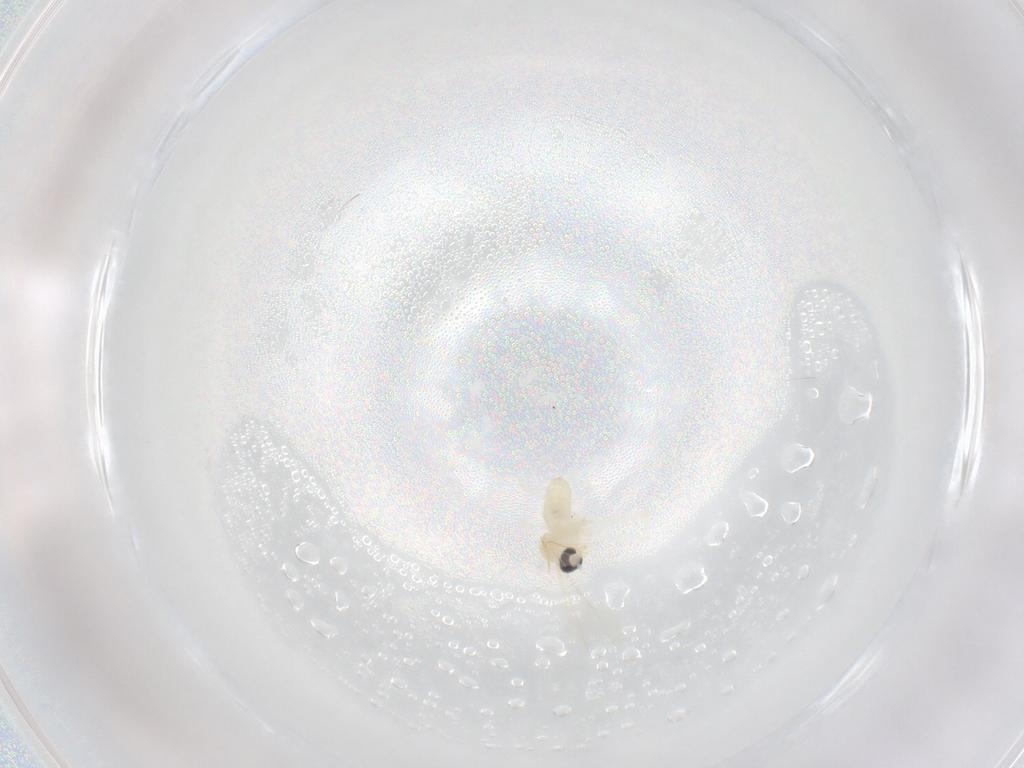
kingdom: Animalia
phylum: Arthropoda
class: Insecta
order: Diptera
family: Cecidomyiidae
